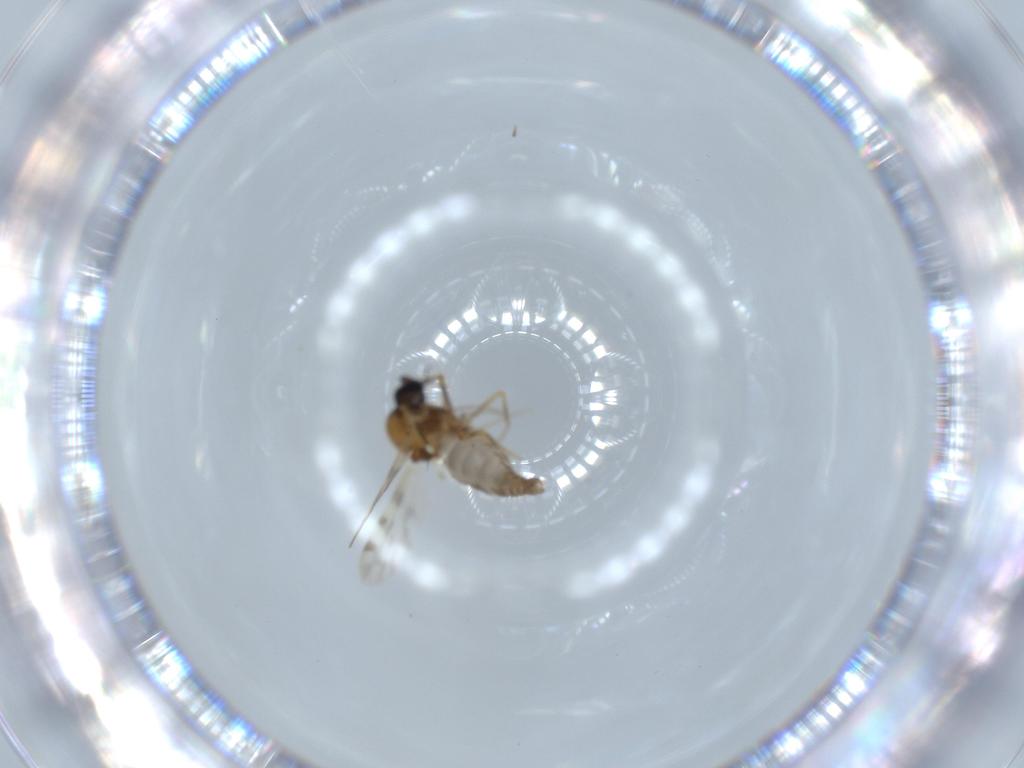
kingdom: Animalia
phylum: Arthropoda
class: Insecta
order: Diptera
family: Ceratopogonidae
